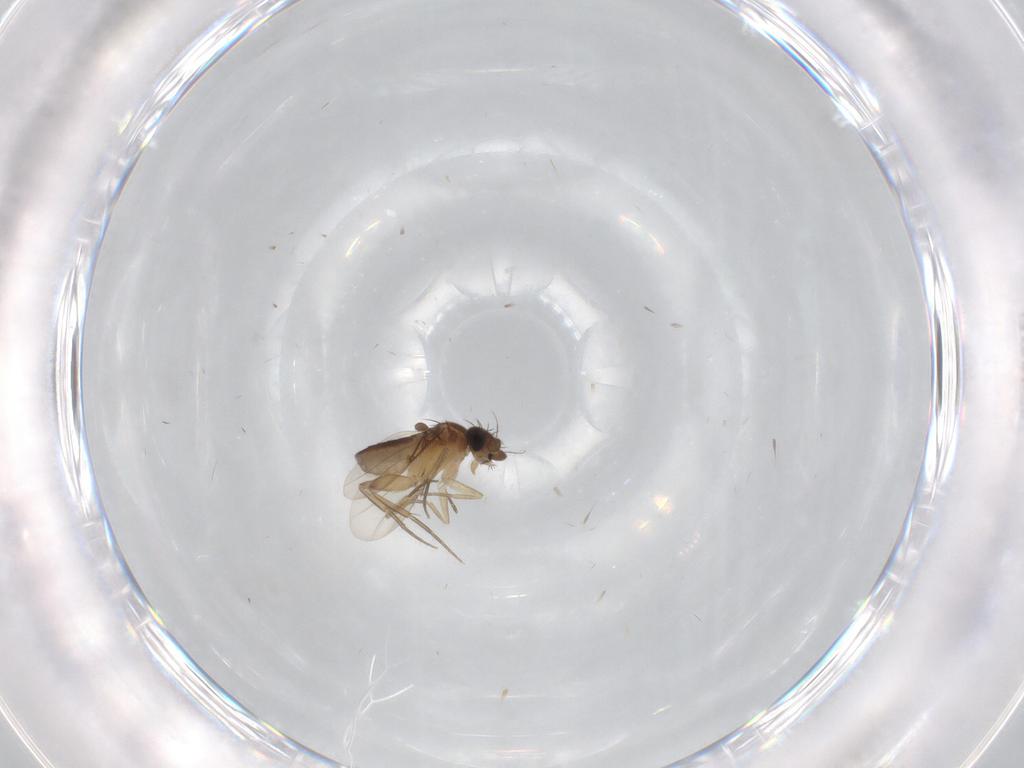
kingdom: Animalia
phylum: Arthropoda
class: Insecta
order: Diptera
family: Phoridae
